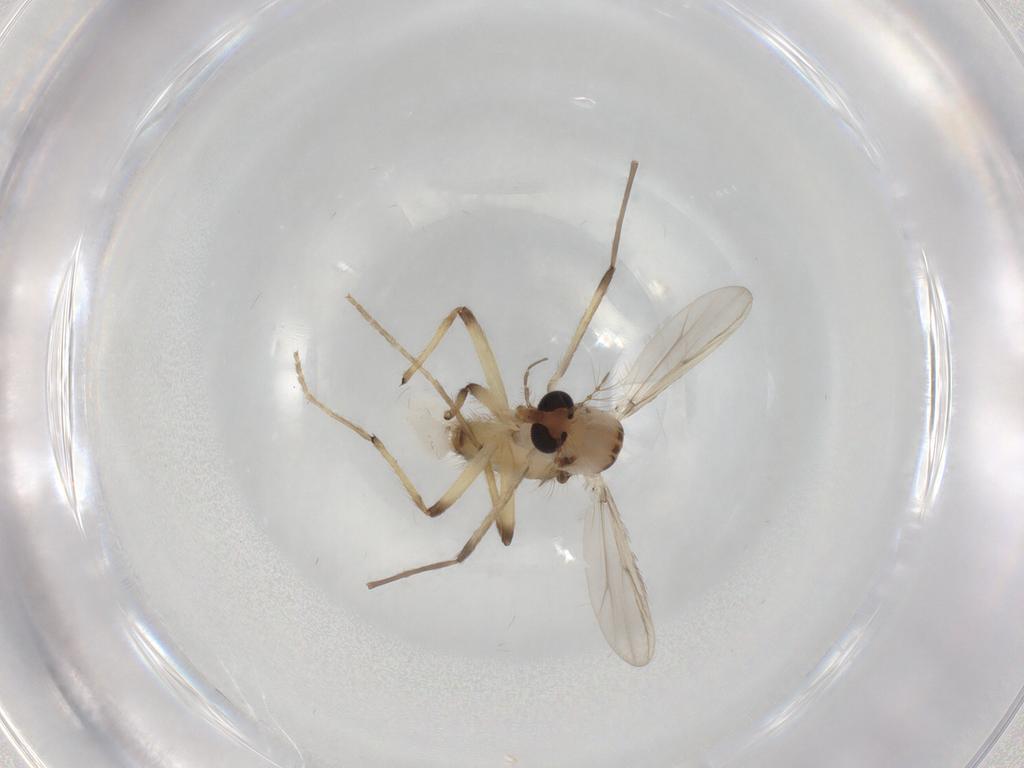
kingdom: Animalia
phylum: Arthropoda
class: Insecta
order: Diptera
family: Chironomidae
